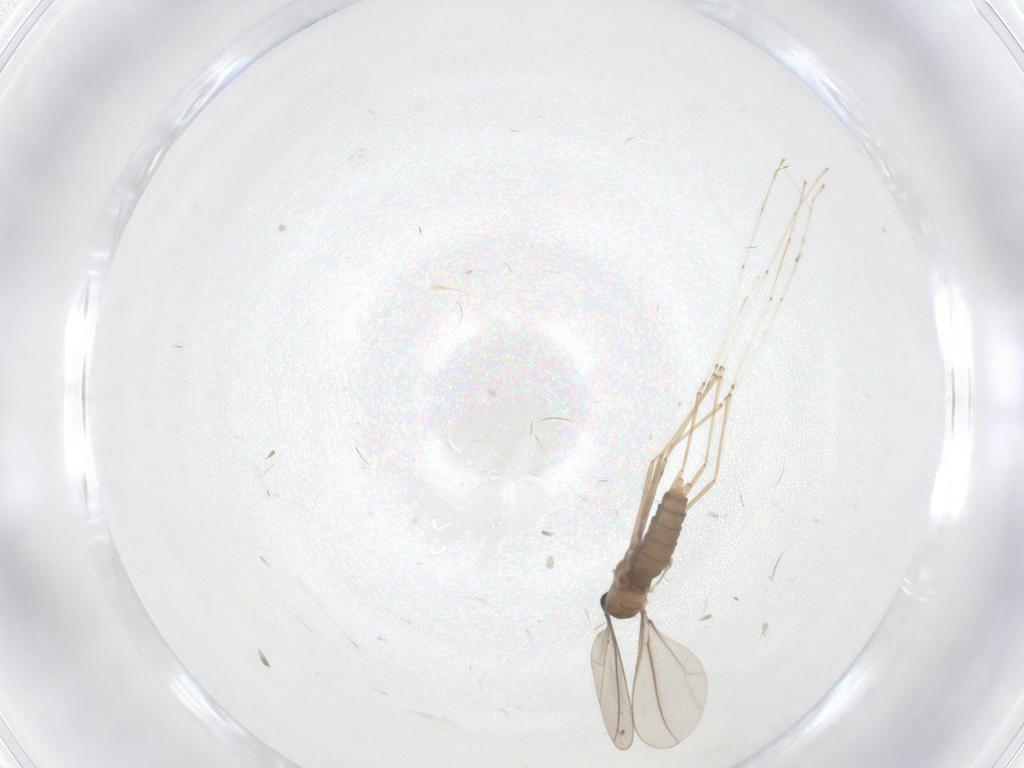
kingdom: Animalia
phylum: Arthropoda
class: Insecta
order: Diptera
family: Cecidomyiidae
